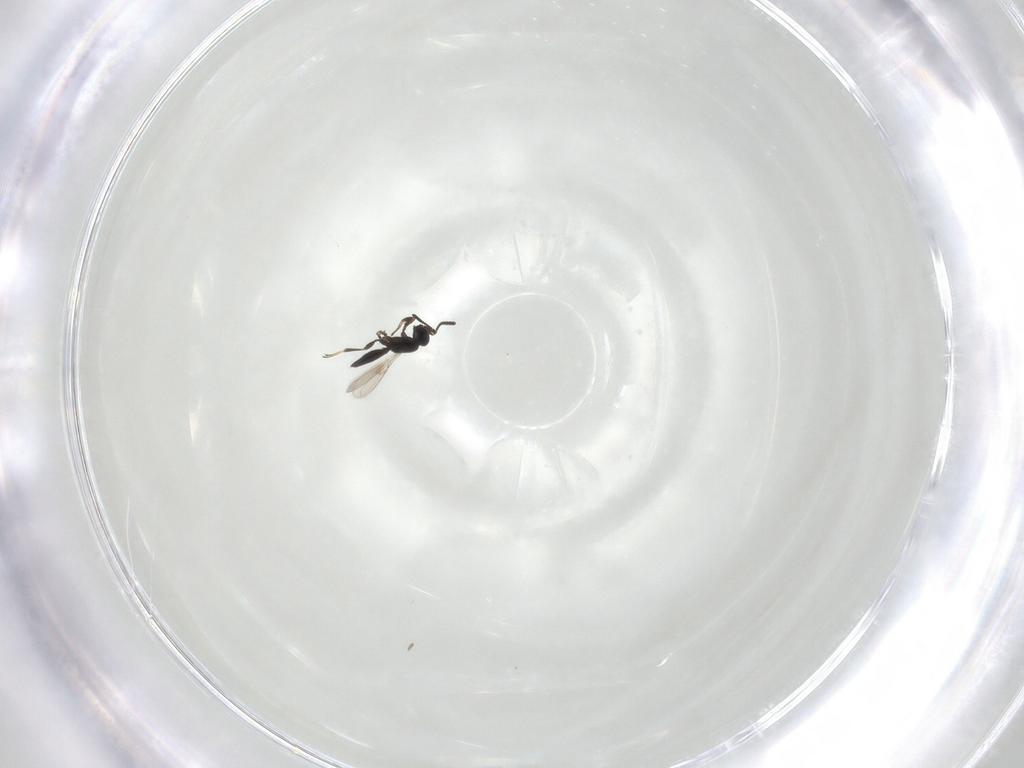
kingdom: Animalia
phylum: Arthropoda
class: Insecta
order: Hymenoptera
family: Scelionidae
